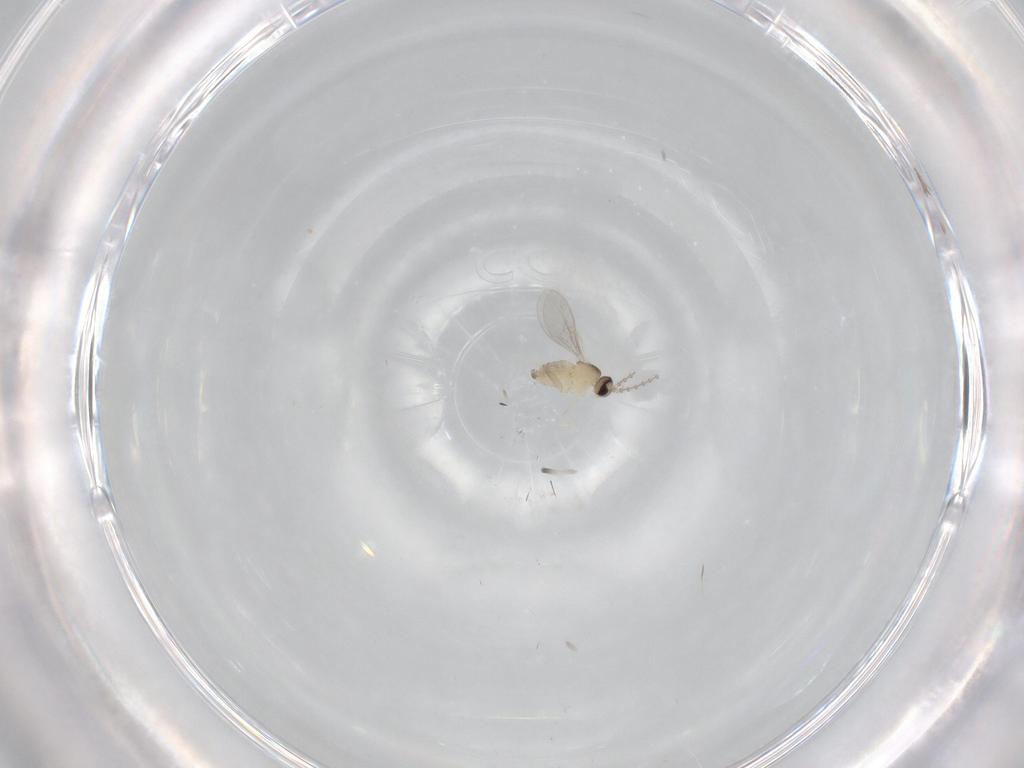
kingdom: Animalia
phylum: Arthropoda
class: Insecta
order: Diptera
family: Cecidomyiidae
